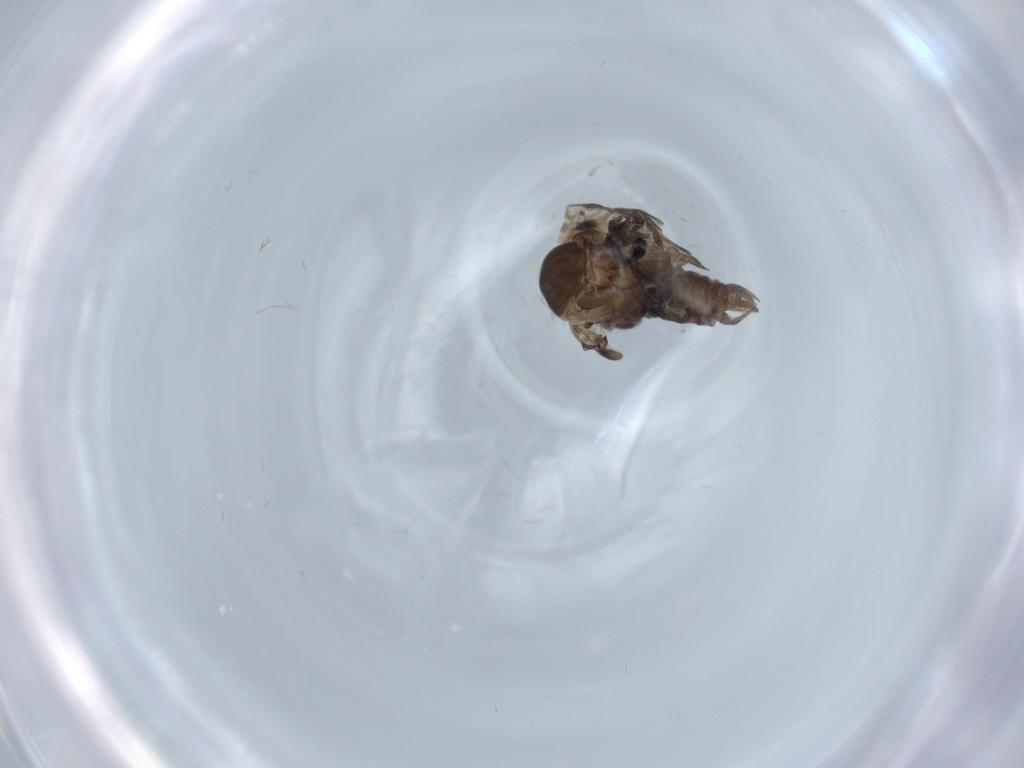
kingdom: Animalia
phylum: Arthropoda
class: Insecta
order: Diptera
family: Psychodidae
